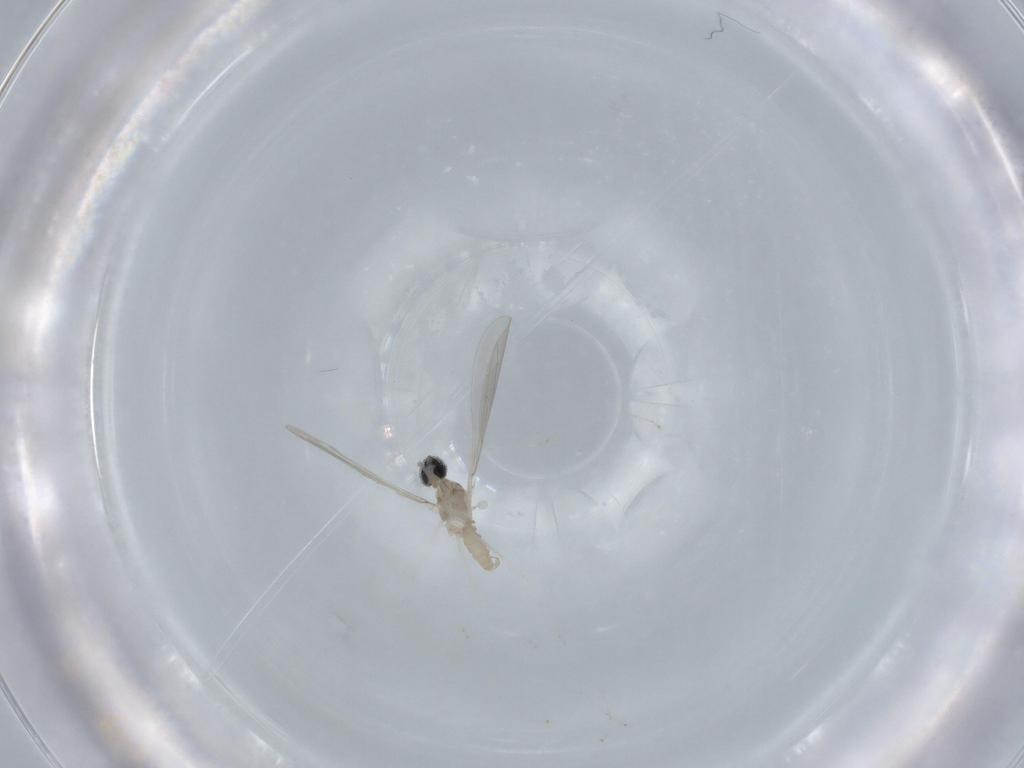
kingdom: Animalia
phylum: Arthropoda
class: Insecta
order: Diptera
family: Cecidomyiidae
